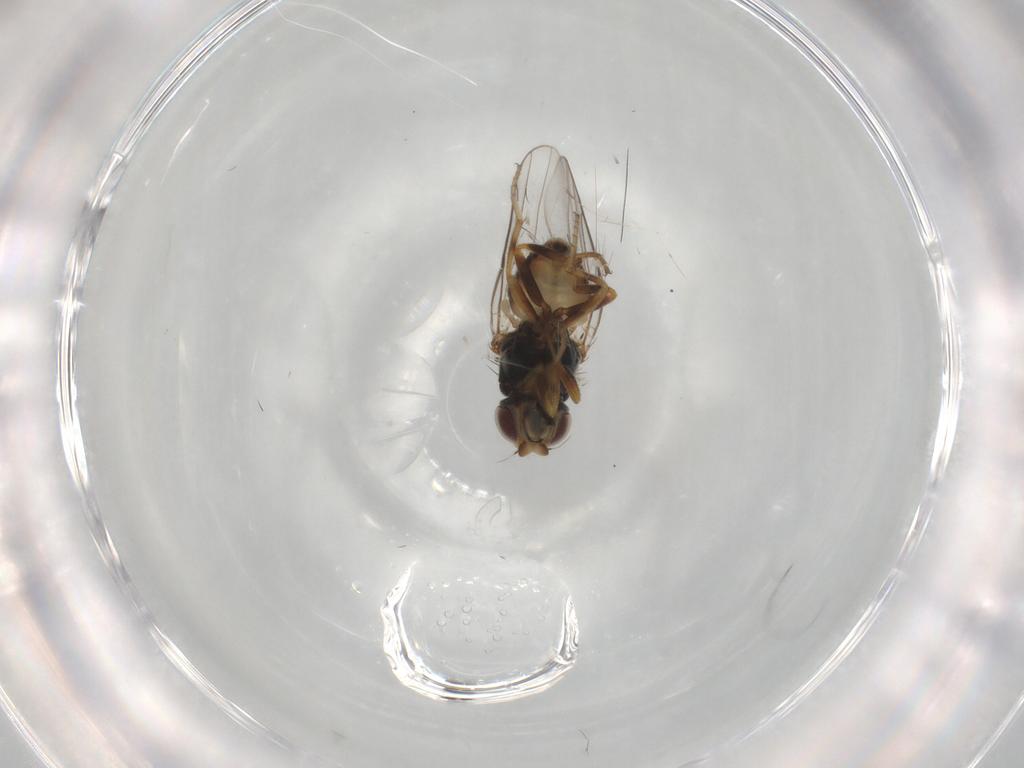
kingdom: Animalia
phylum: Arthropoda
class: Insecta
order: Diptera
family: Chloropidae
